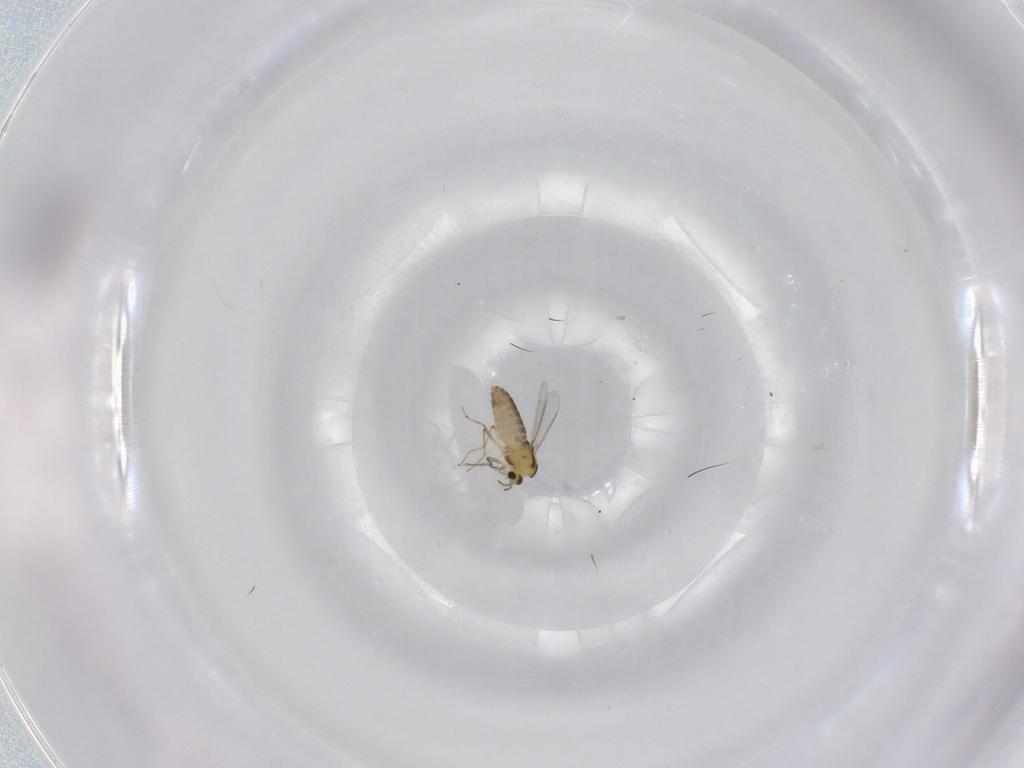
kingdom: Animalia
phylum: Arthropoda
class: Insecta
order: Diptera
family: Chironomidae
